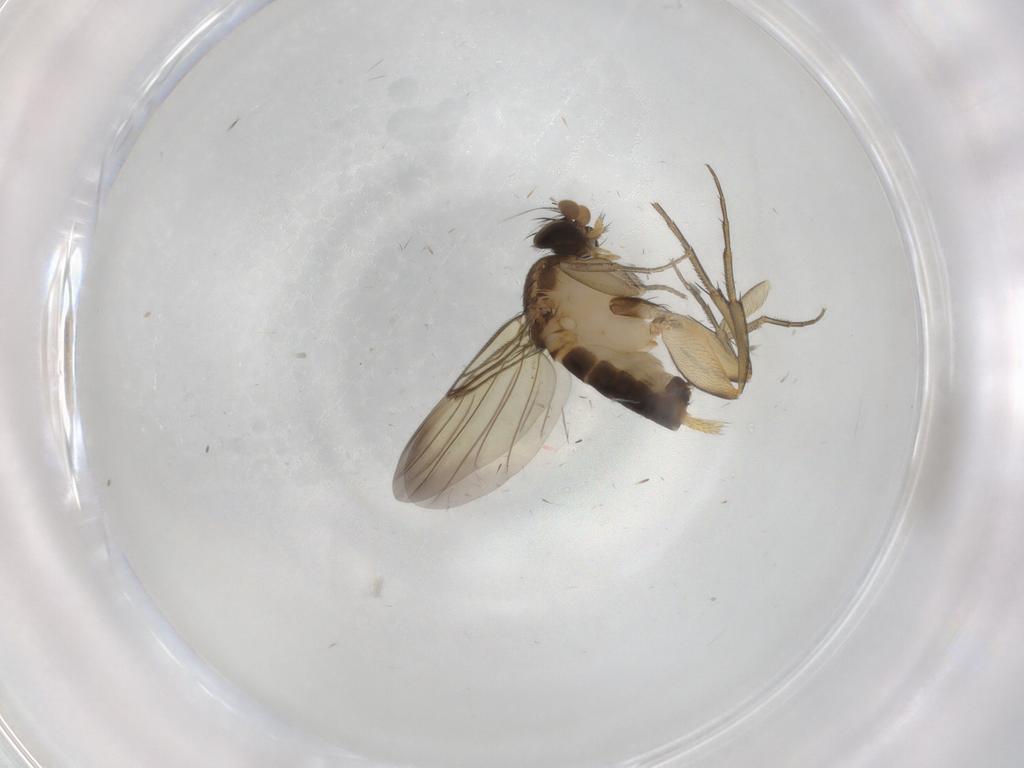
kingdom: Animalia
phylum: Arthropoda
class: Insecta
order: Diptera
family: Phoridae
